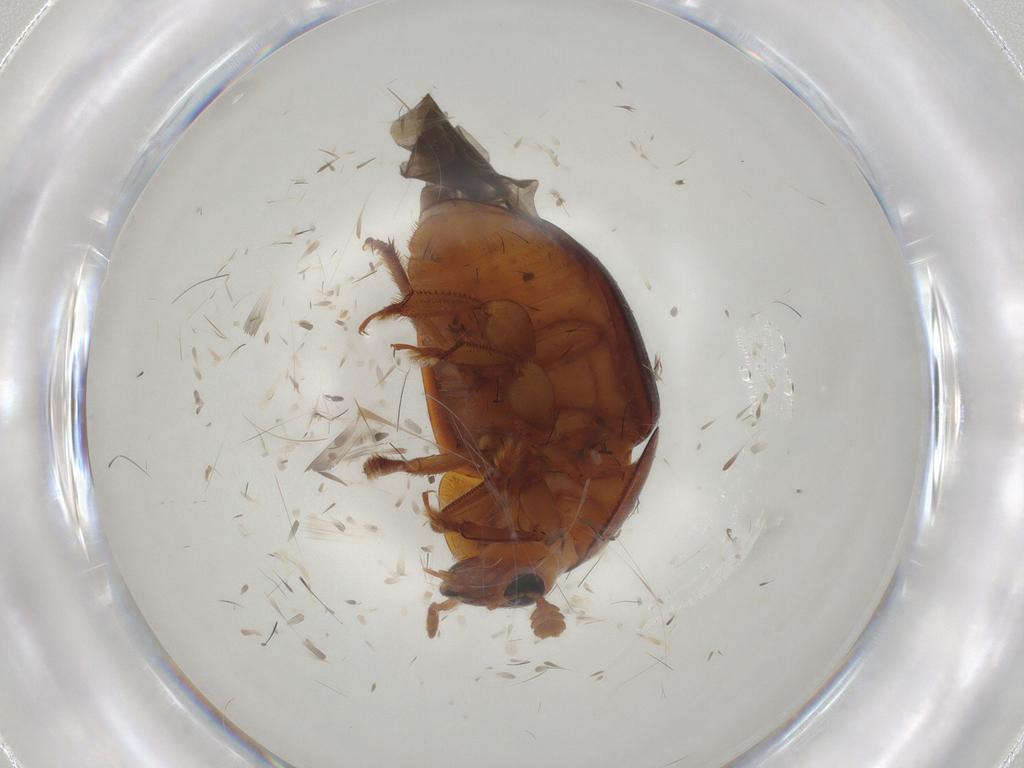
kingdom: Animalia
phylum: Arthropoda
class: Insecta
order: Coleoptera
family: Nitidulidae
